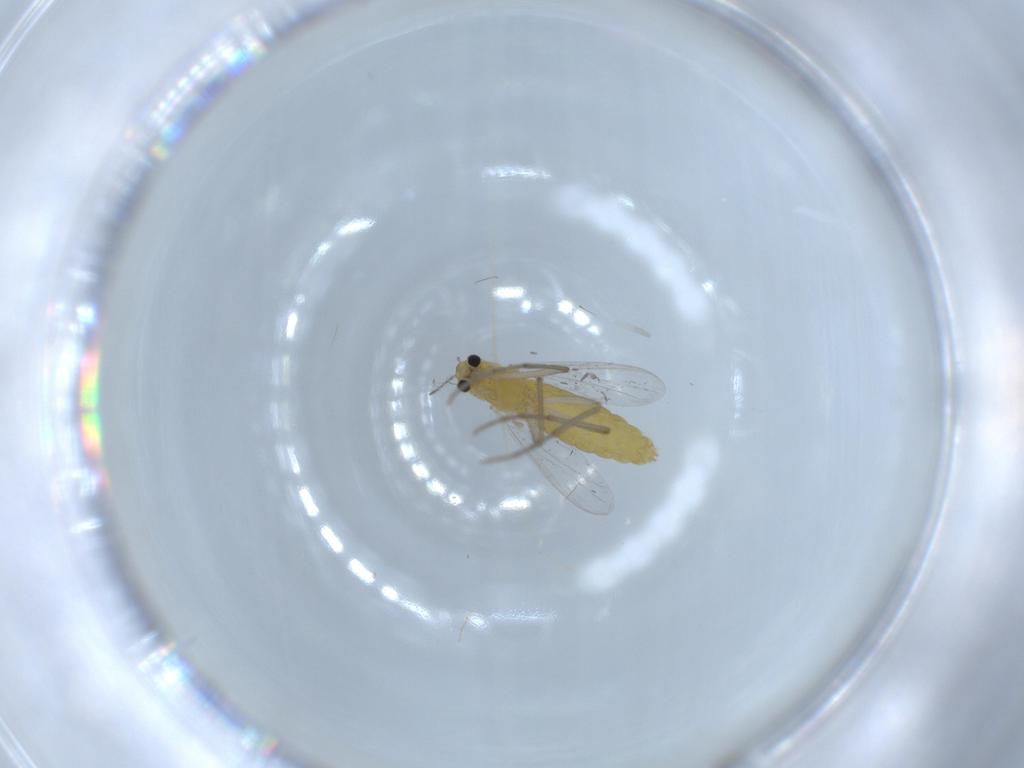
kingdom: Animalia
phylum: Arthropoda
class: Insecta
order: Diptera
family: Chironomidae
